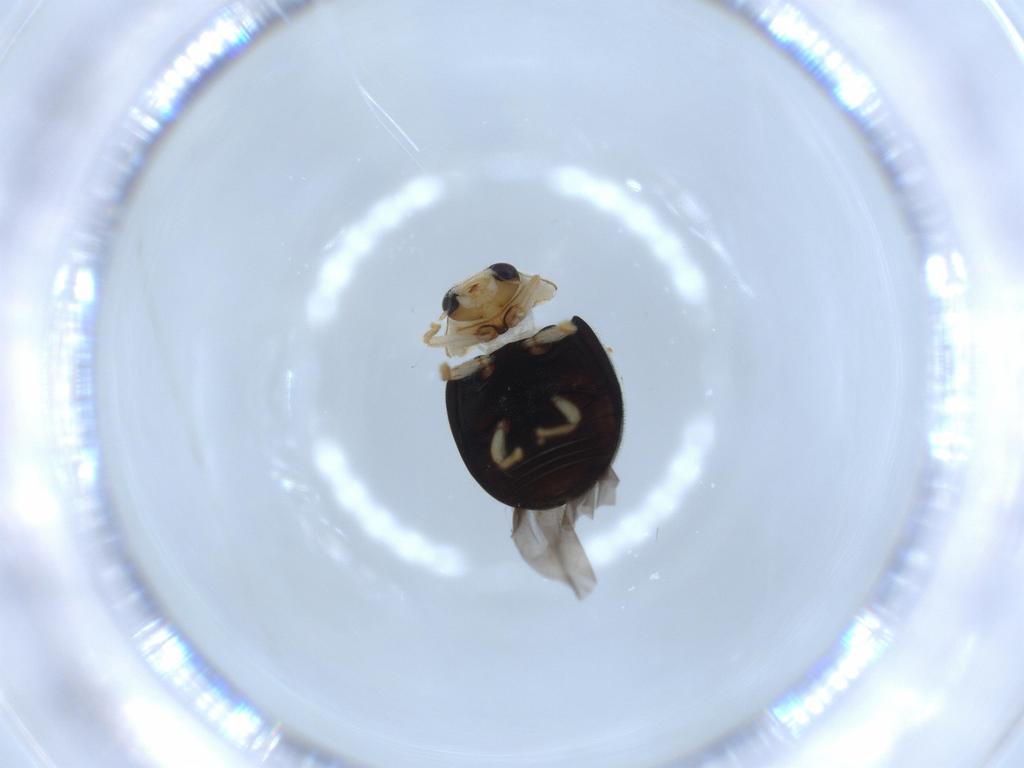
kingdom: Animalia
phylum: Arthropoda
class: Insecta
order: Coleoptera
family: Coccinellidae
